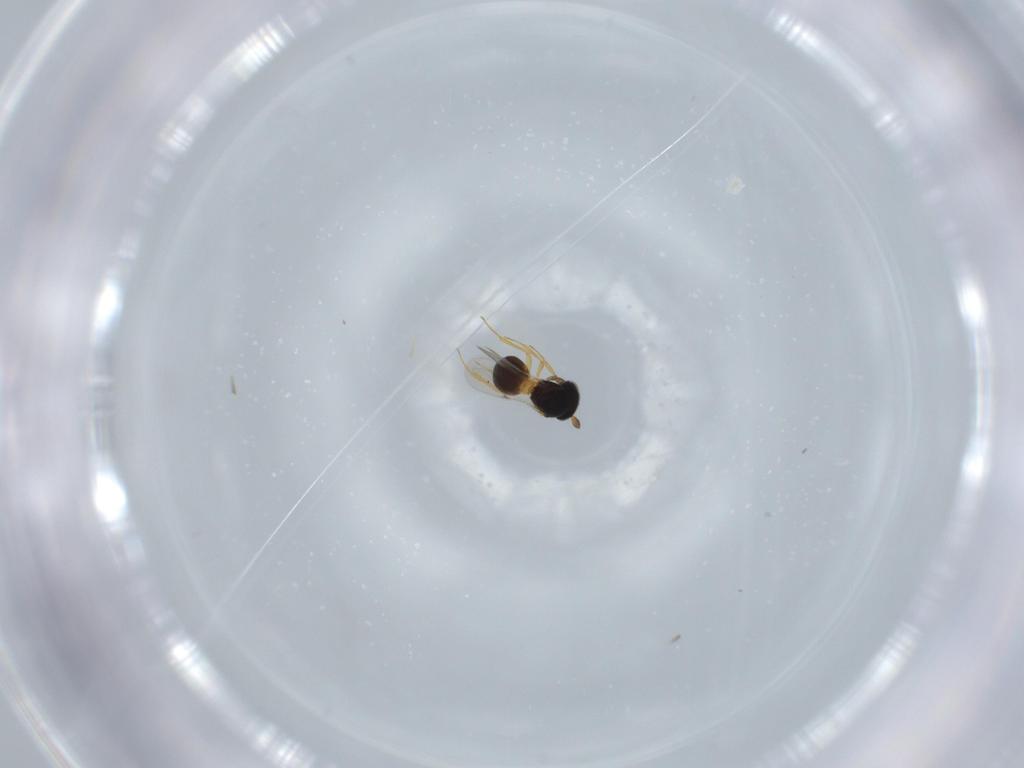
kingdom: Animalia
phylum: Arthropoda
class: Insecta
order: Hymenoptera
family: Scelionidae
